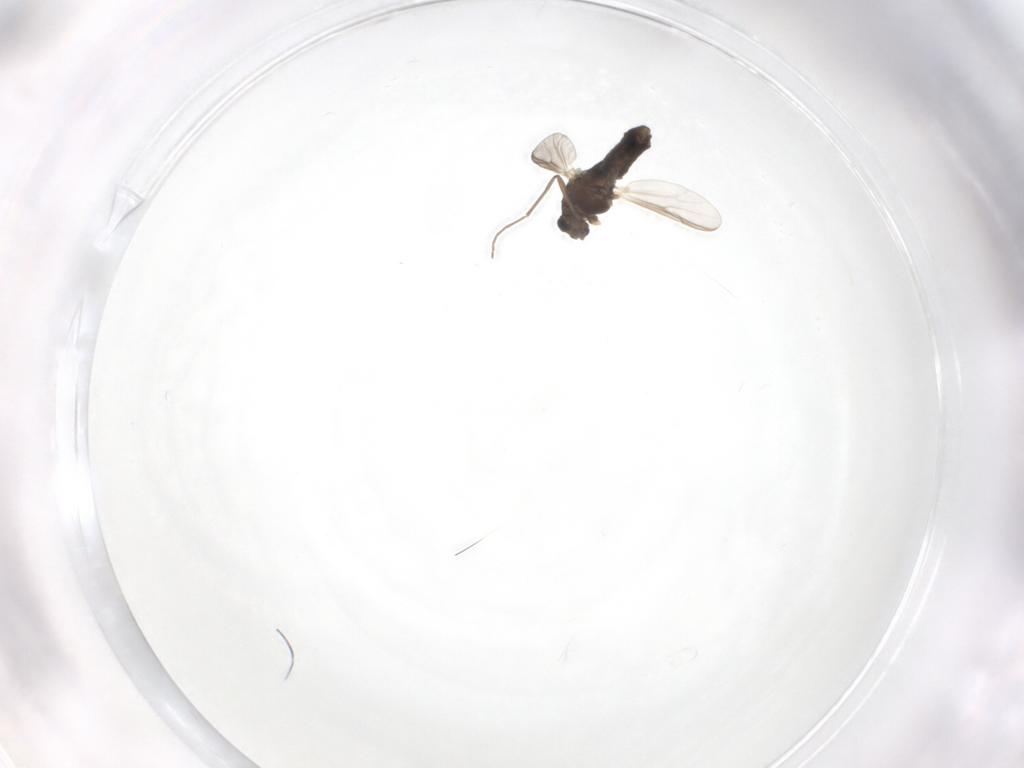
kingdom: Animalia
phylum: Arthropoda
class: Insecta
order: Diptera
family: Chironomidae
